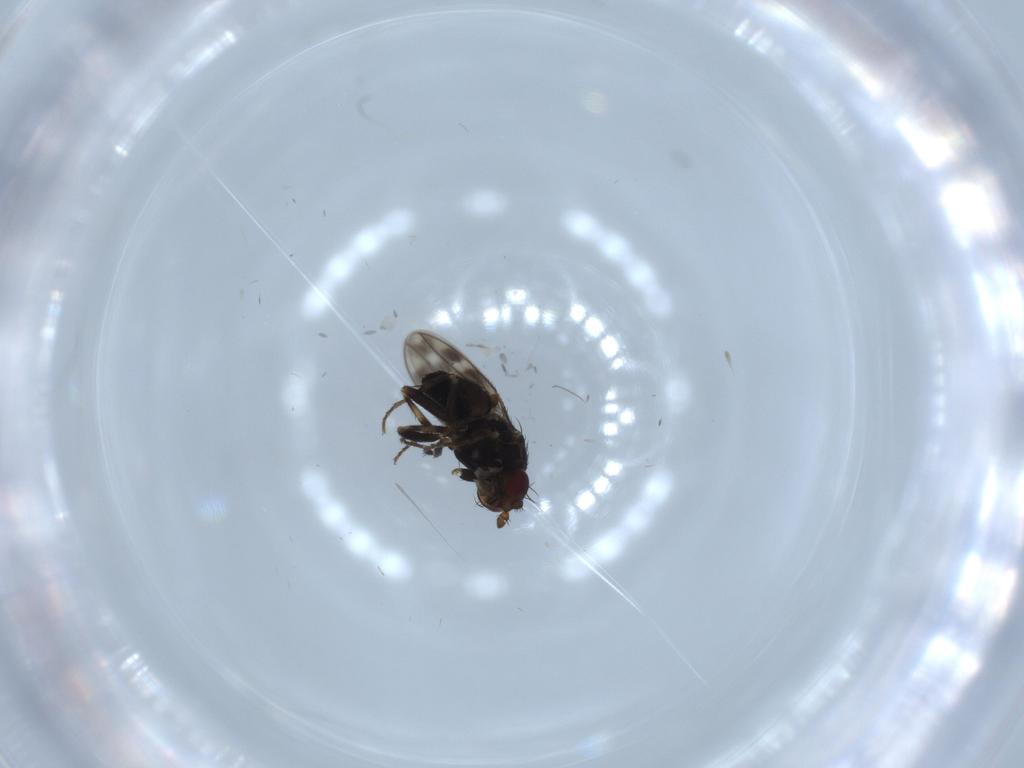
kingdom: Animalia
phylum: Arthropoda
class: Insecta
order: Diptera
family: Sphaeroceridae
